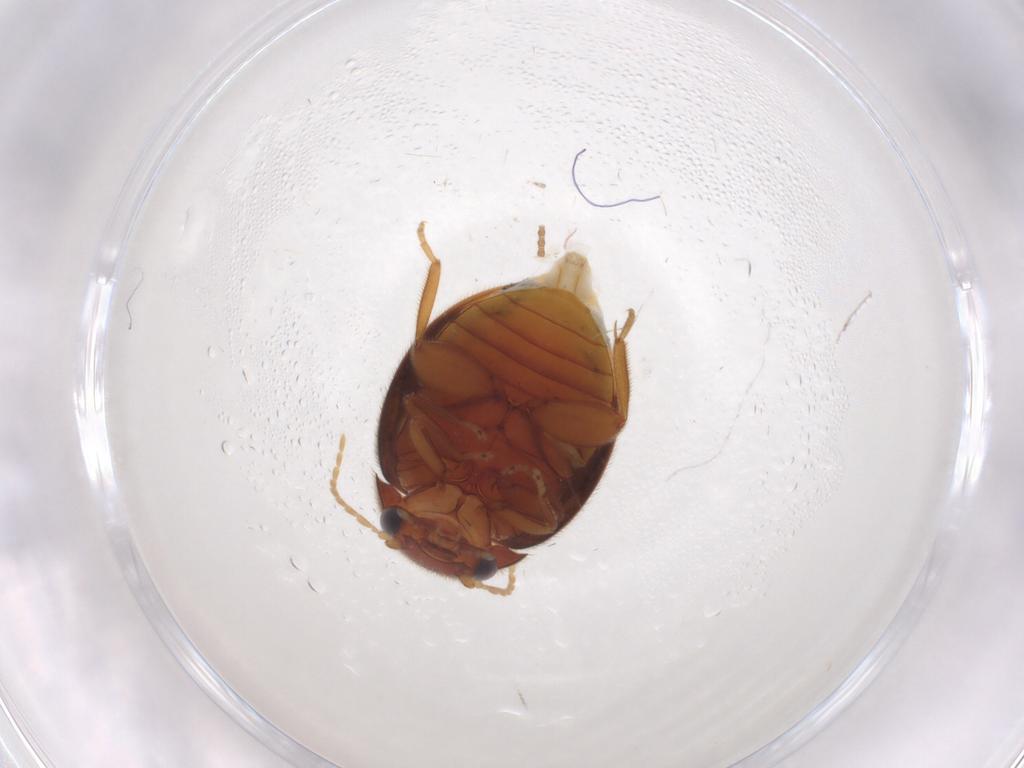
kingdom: Animalia
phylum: Arthropoda
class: Insecta
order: Coleoptera
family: Scirtidae
